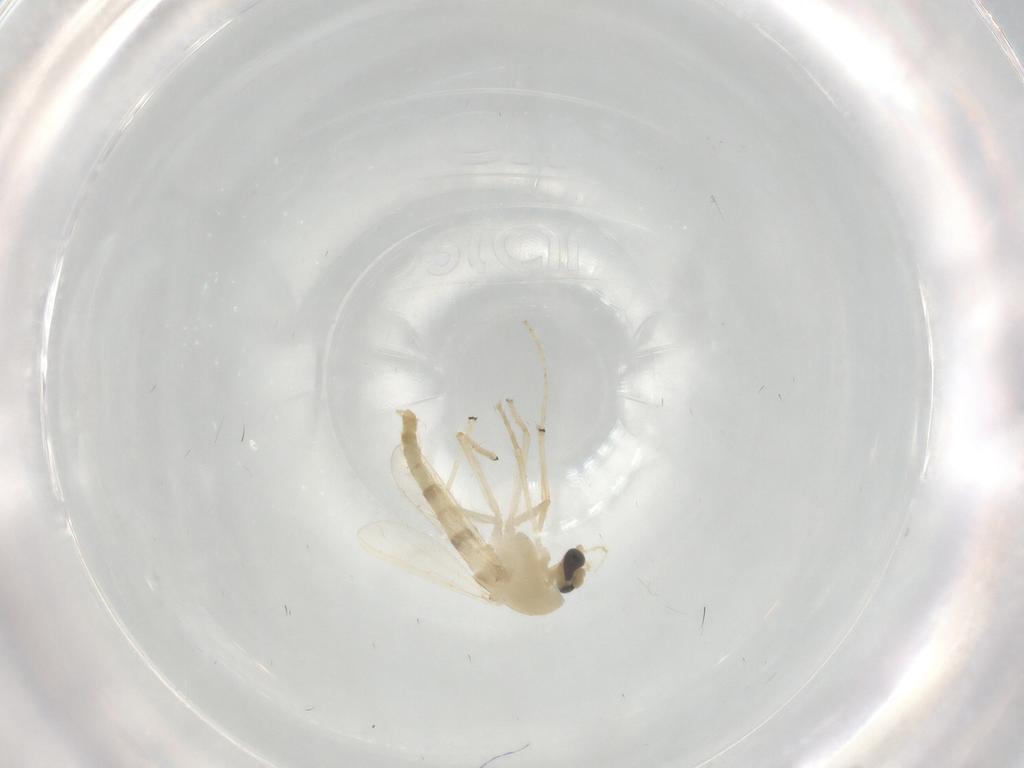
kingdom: Animalia
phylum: Arthropoda
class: Insecta
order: Diptera
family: Chironomidae
